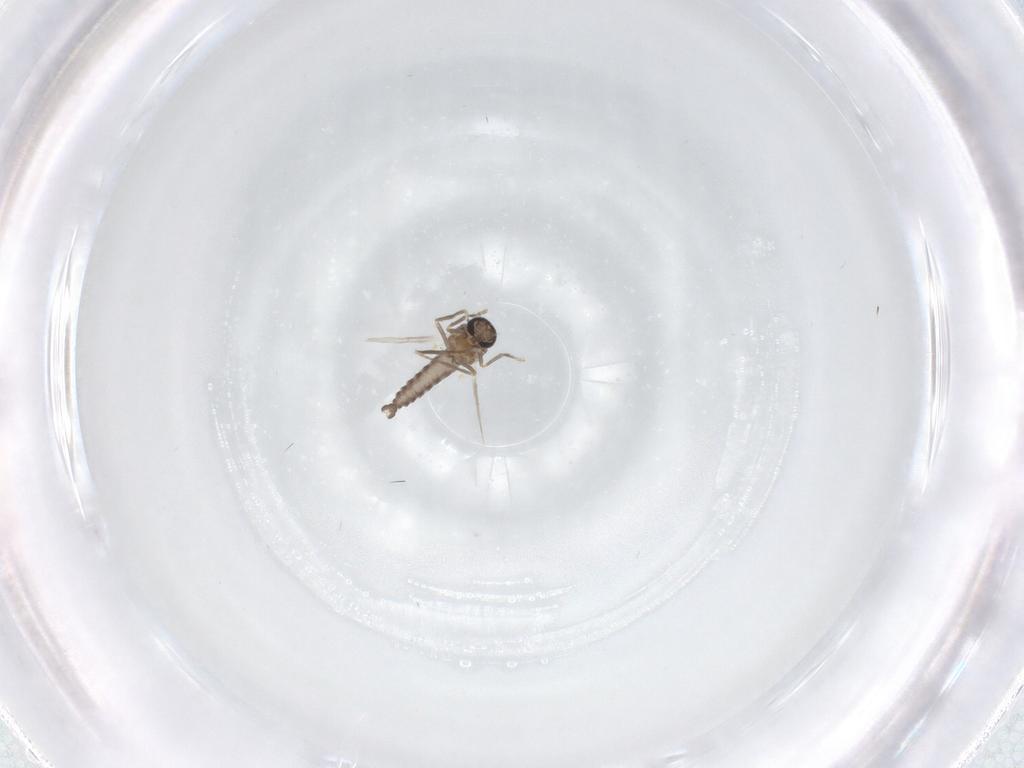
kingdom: Animalia
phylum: Arthropoda
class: Insecta
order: Diptera
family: Ceratopogonidae
